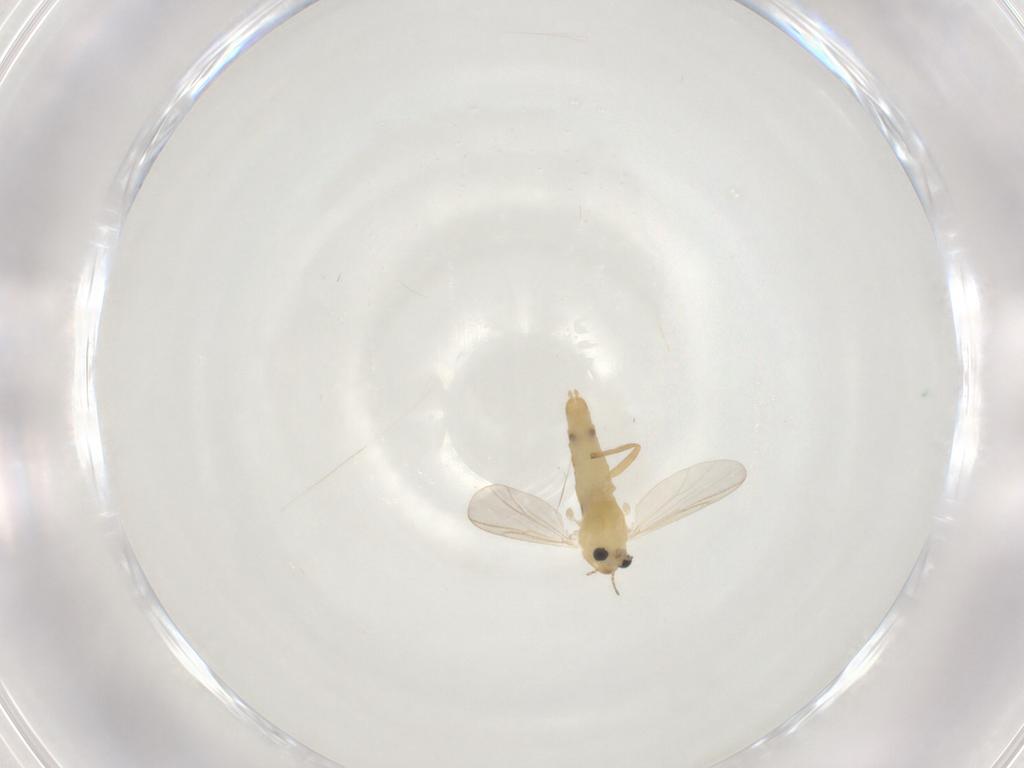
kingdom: Animalia
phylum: Arthropoda
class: Insecta
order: Diptera
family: Chironomidae
